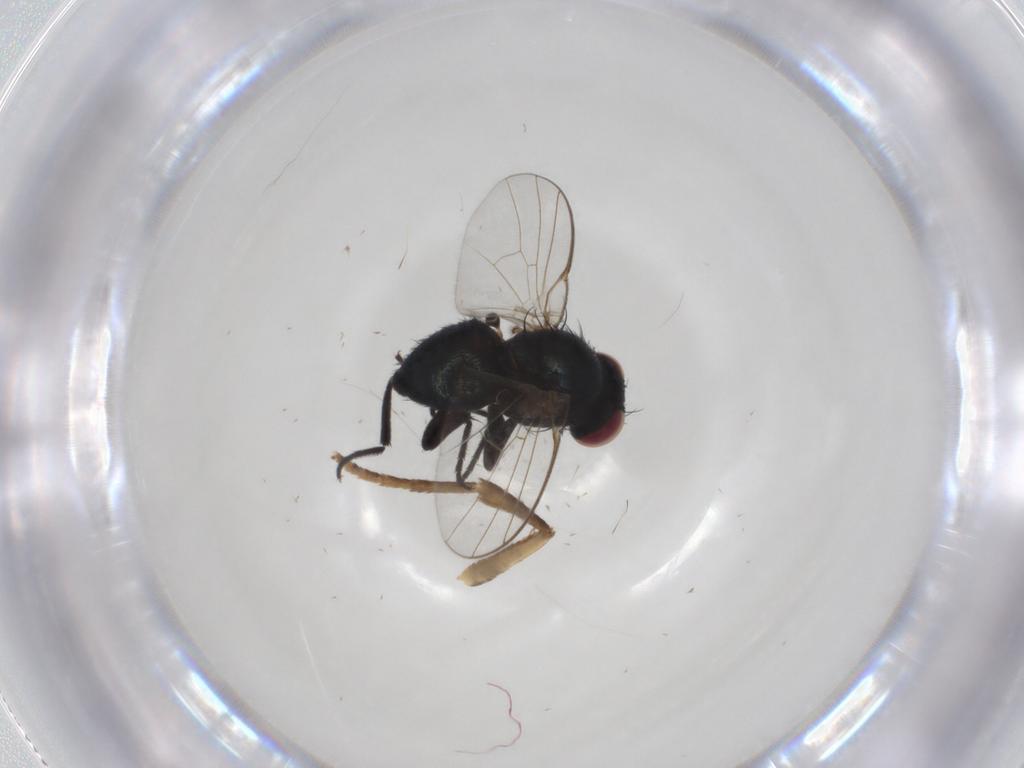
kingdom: Animalia
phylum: Arthropoda
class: Insecta
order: Diptera
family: Agromyzidae
